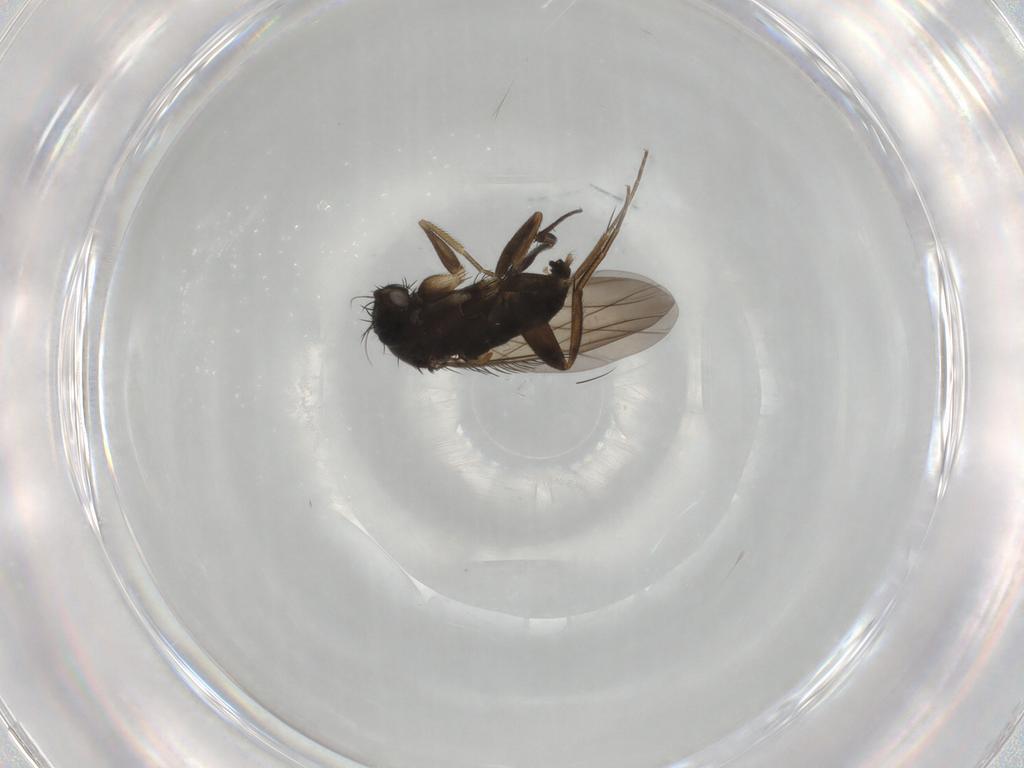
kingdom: Animalia
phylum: Arthropoda
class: Insecta
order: Diptera
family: Phoridae
